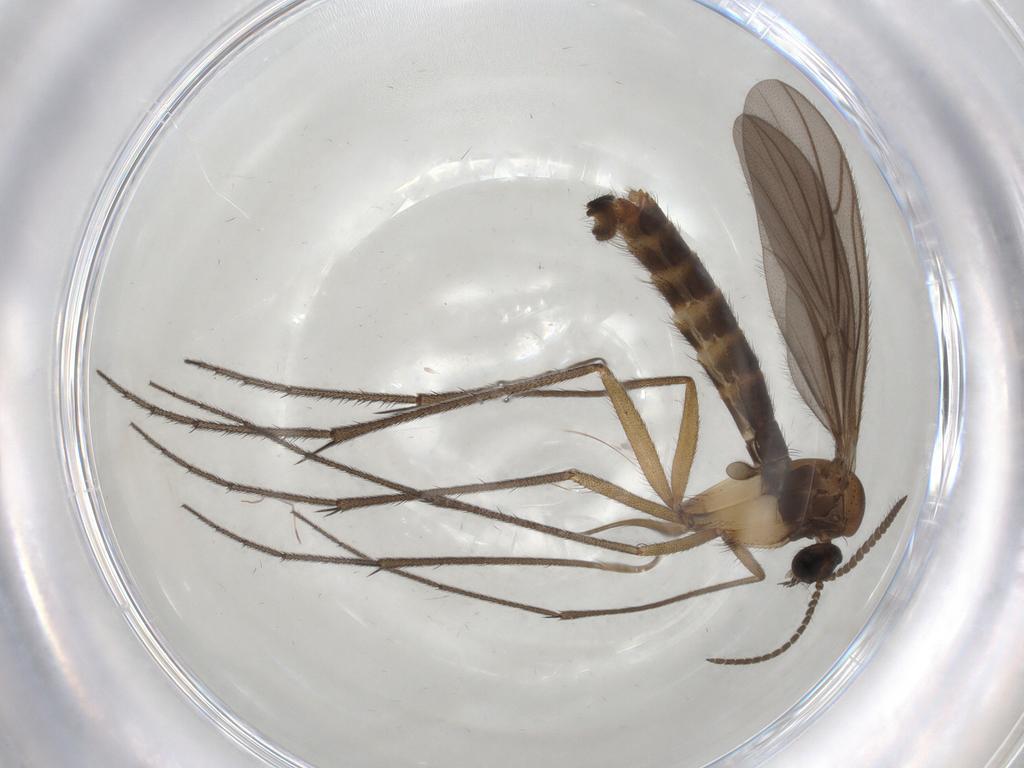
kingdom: Animalia
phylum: Arthropoda
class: Insecta
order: Diptera
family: Ditomyiidae
